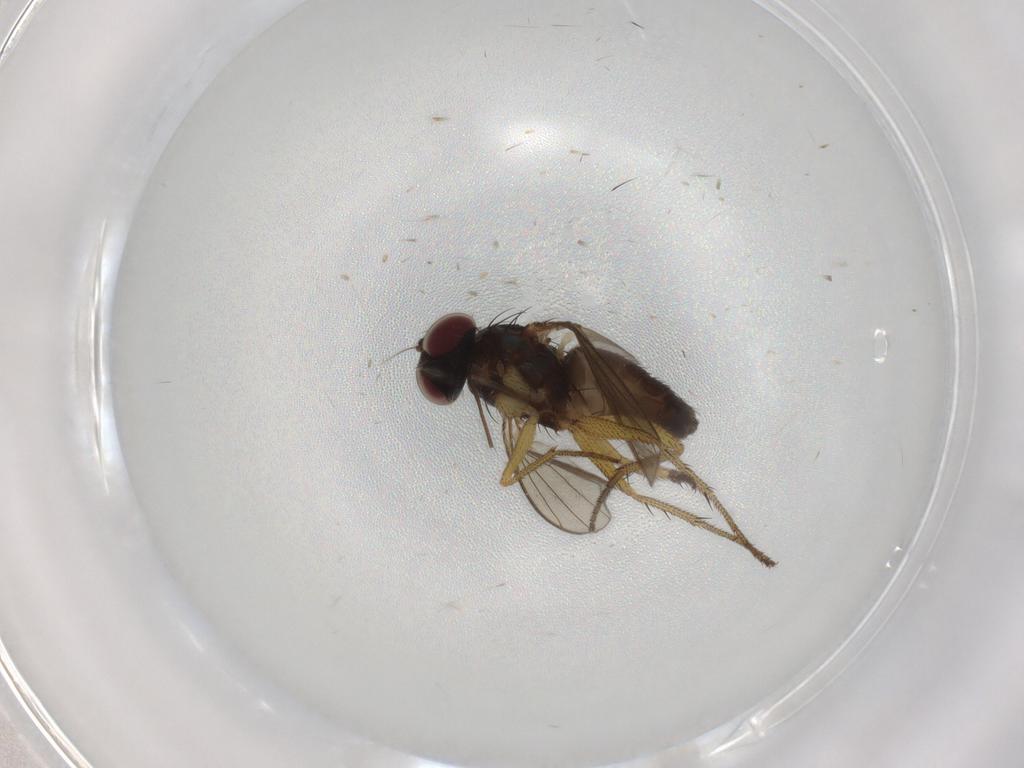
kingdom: Animalia
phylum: Arthropoda
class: Insecta
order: Diptera
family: Chironomidae
